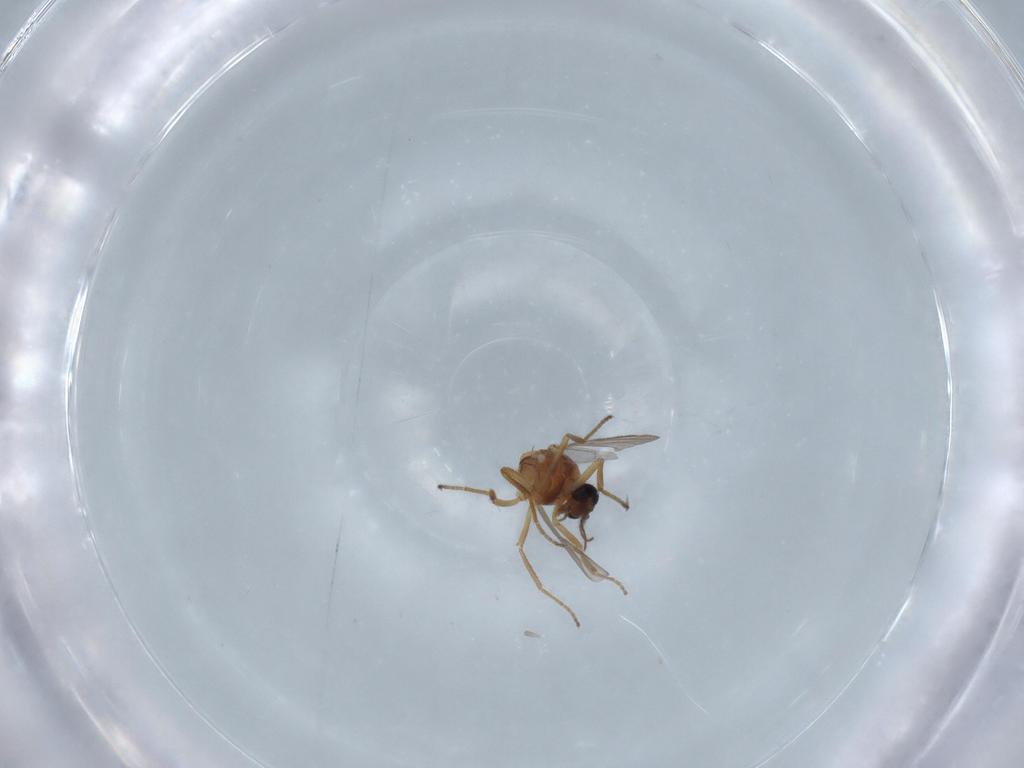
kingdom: Animalia
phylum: Arthropoda
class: Insecta
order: Diptera
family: Ceratopogonidae
